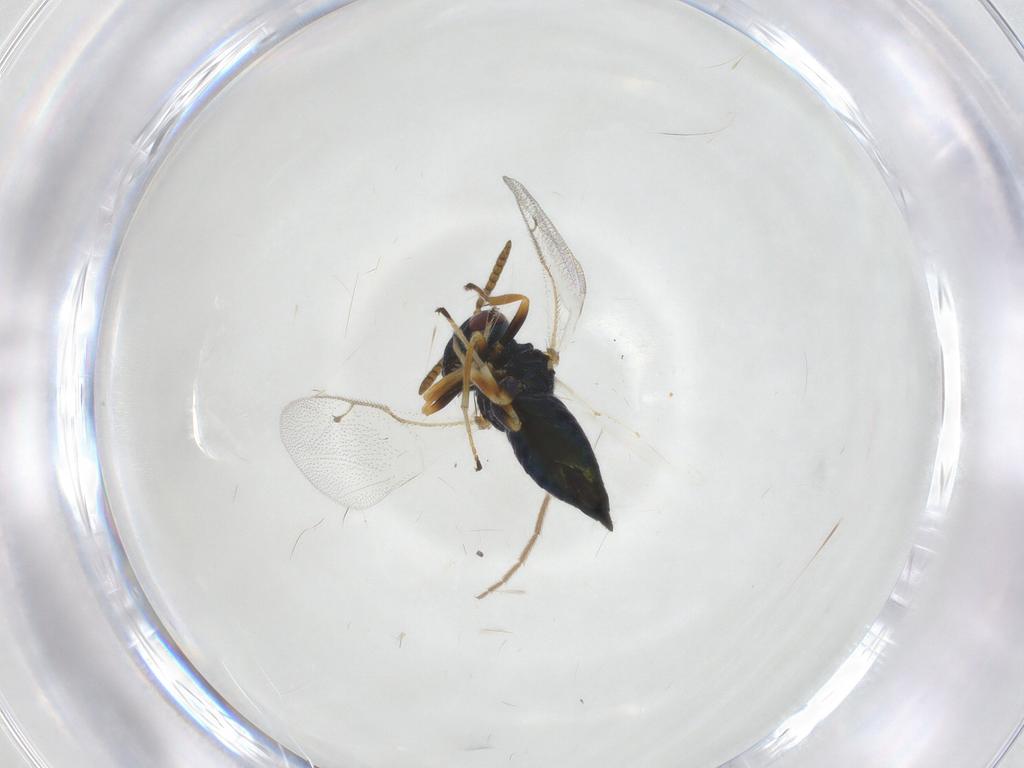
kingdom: Animalia
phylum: Arthropoda
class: Insecta
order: Hymenoptera
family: Pteromalidae
